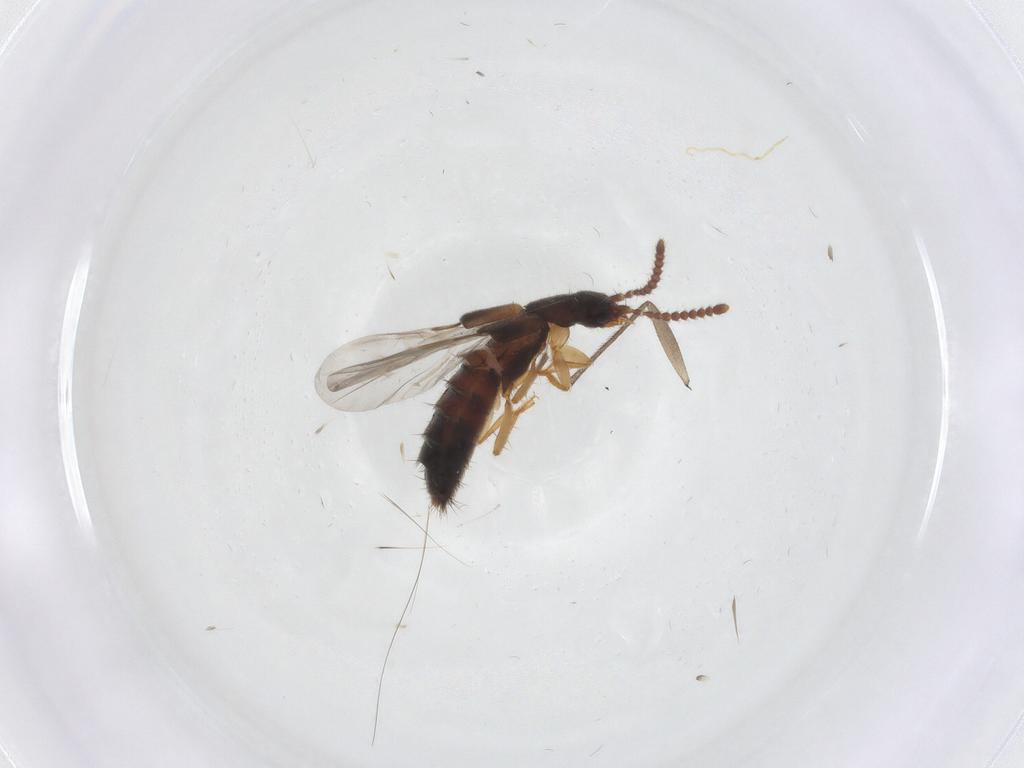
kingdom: Animalia
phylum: Arthropoda
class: Insecta
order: Coleoptera
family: Staphylinidae
